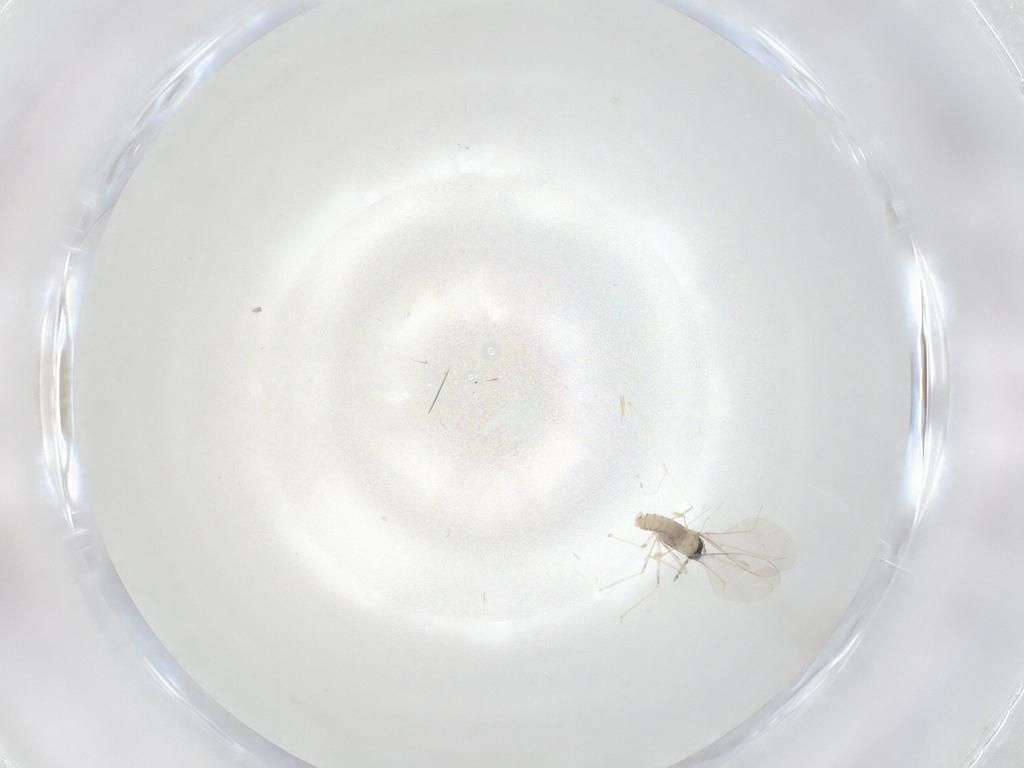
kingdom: Animalia
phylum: Arthropoda
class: Insecta
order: Diptera
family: Cecidomyiidae
